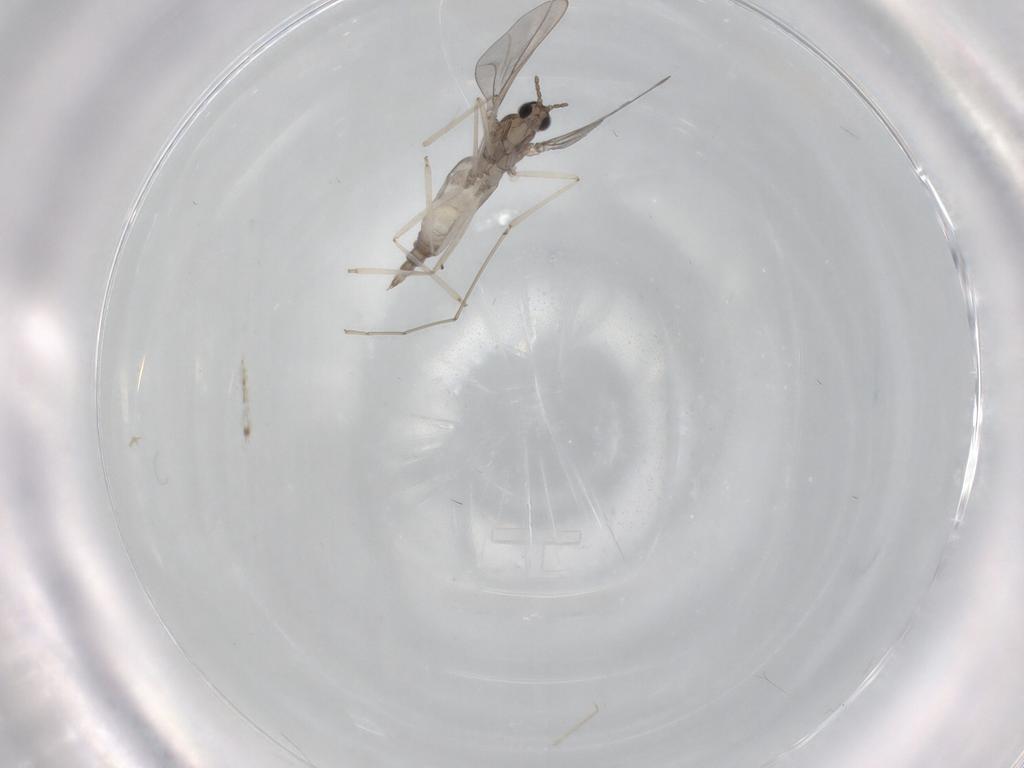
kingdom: Animalia
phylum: Arthropoda
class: Insecta
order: Diptera
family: Cecidomyiidae
